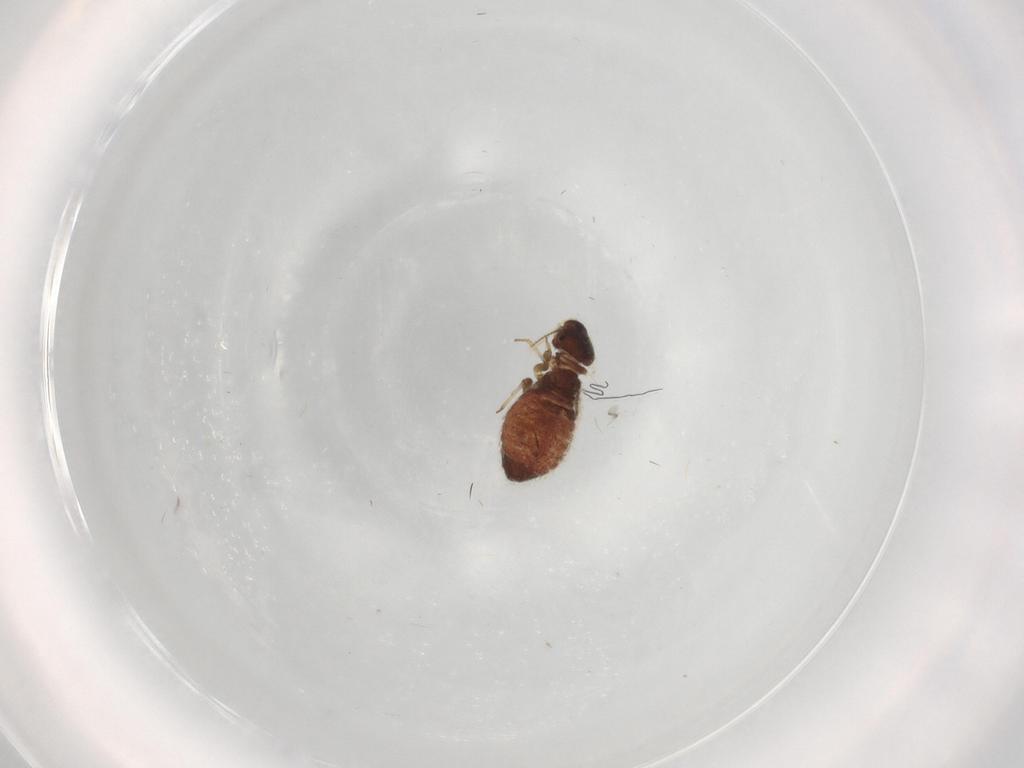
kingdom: Animalia
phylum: Arthropoda
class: Insecta
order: Psocodea
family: Archipsocidae
